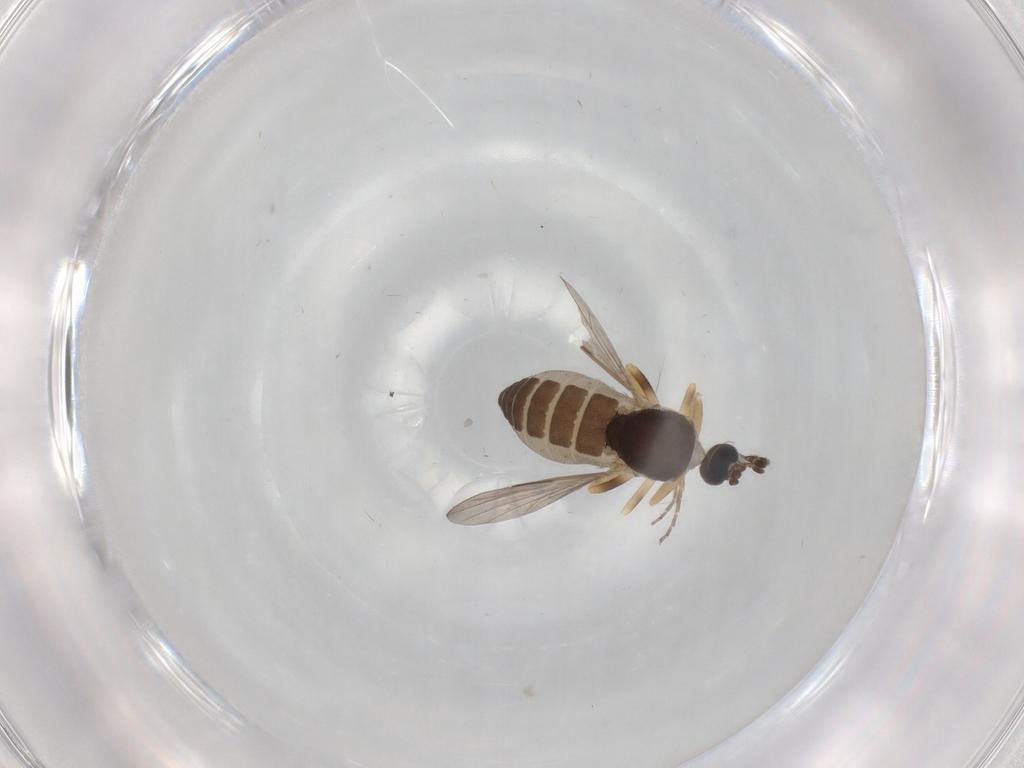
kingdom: Animalia
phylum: Arthropoda
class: Insecta
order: Diptera
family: Ceratopogonidae
